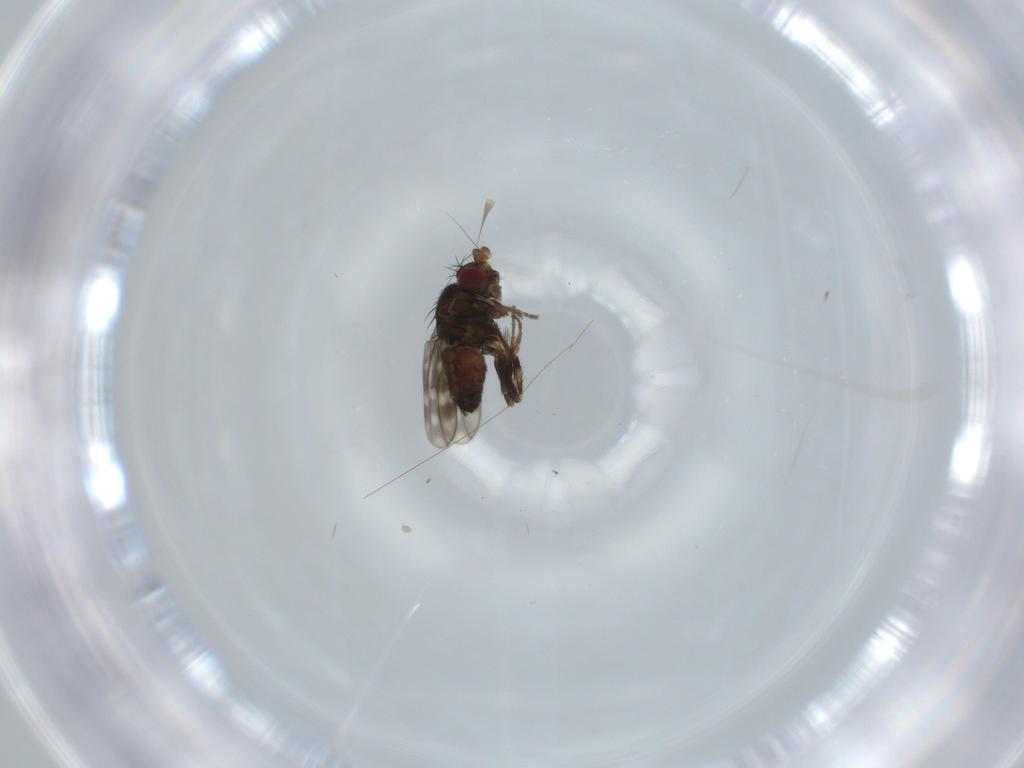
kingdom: Animalia
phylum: Arthropoda
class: Insecta
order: Diptera
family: Sphaeroceridae
